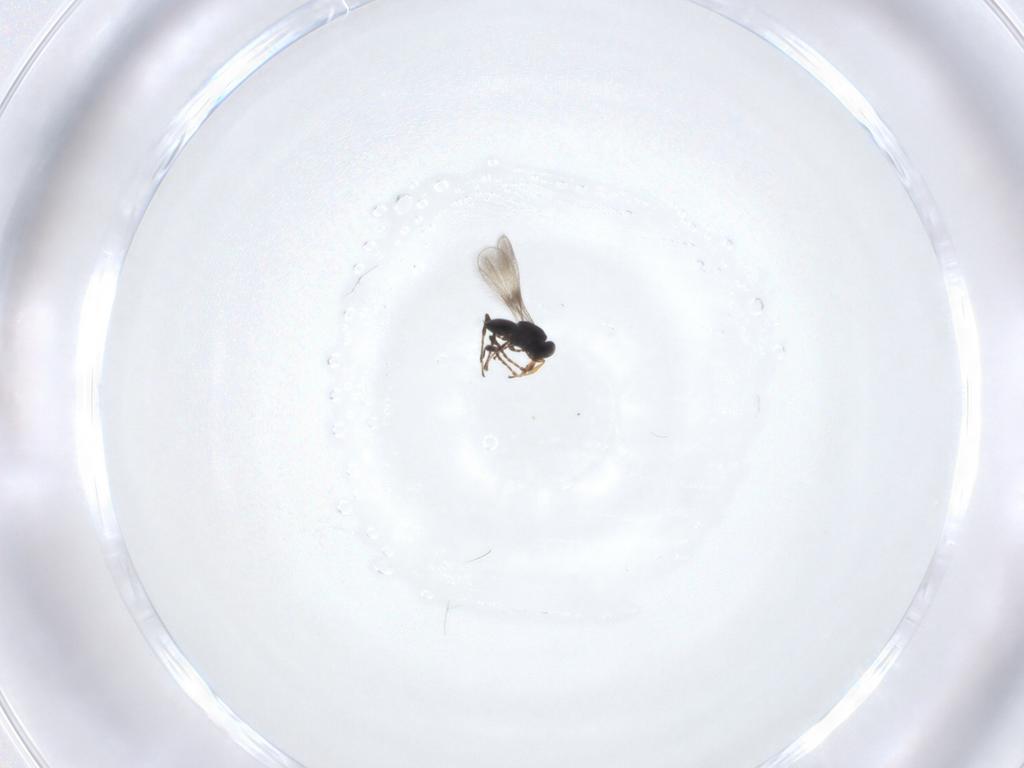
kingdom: Animalia
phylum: Arthropoda
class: Insecta
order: Hymenoptera
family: Platygastridae
